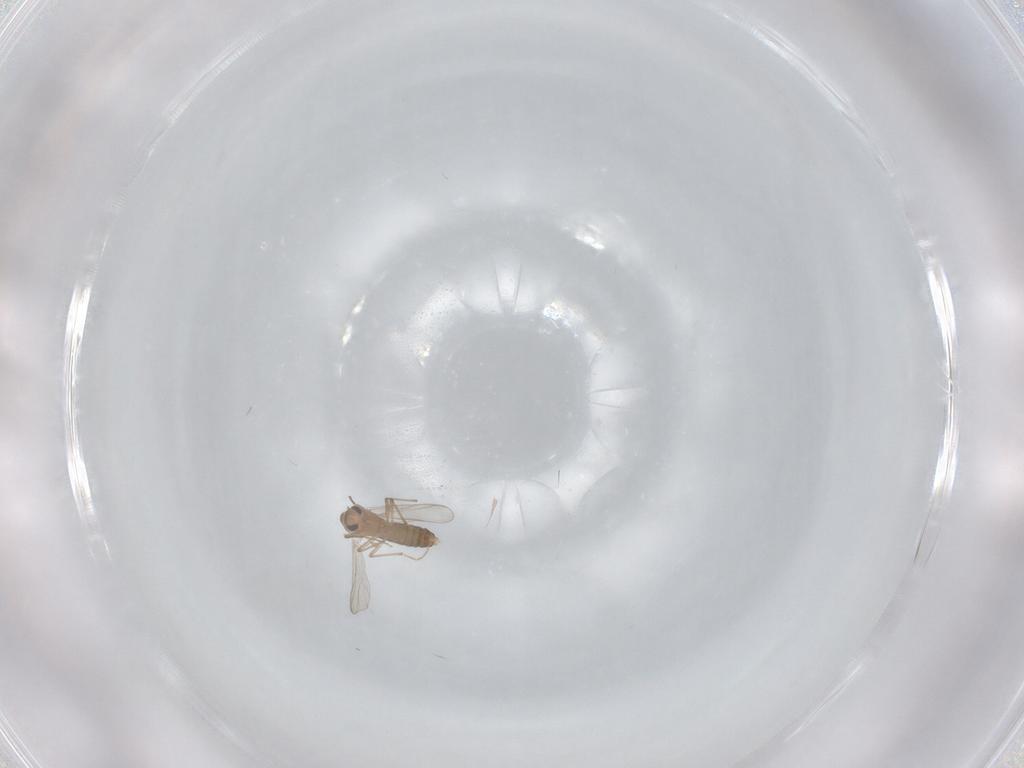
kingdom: Animalia
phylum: Arthropoda
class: Insecta
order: Diptera
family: Chironomidae
